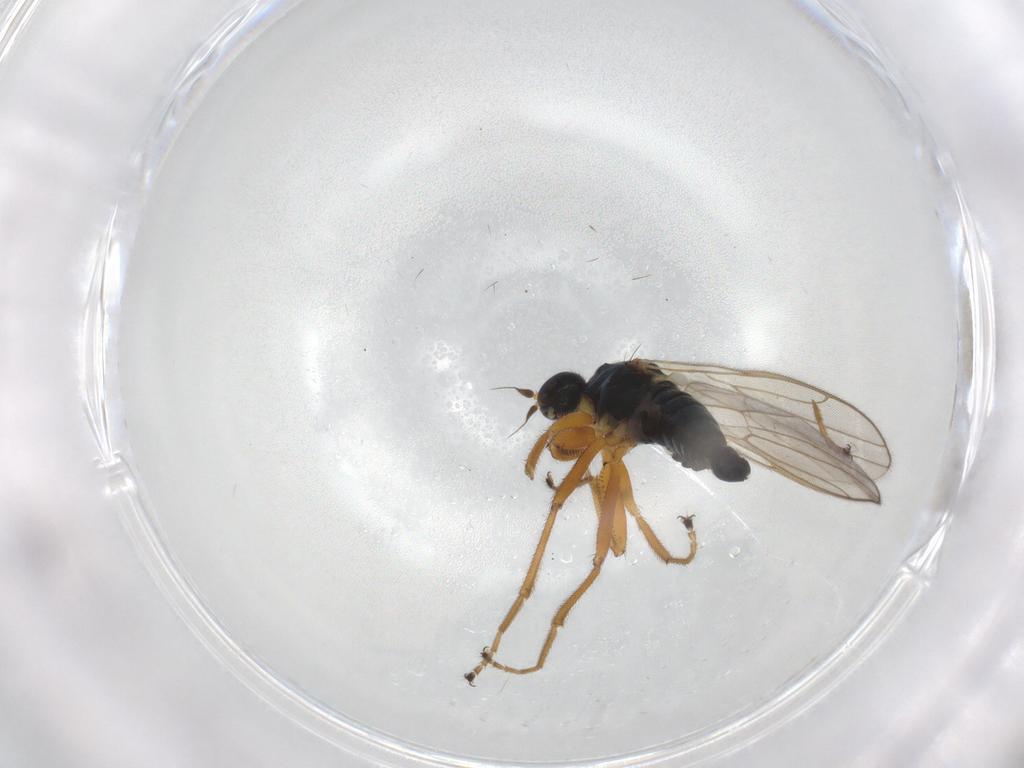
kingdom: Animalia
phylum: Arthropoda
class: Insecta
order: Diptera
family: Hybotidae
